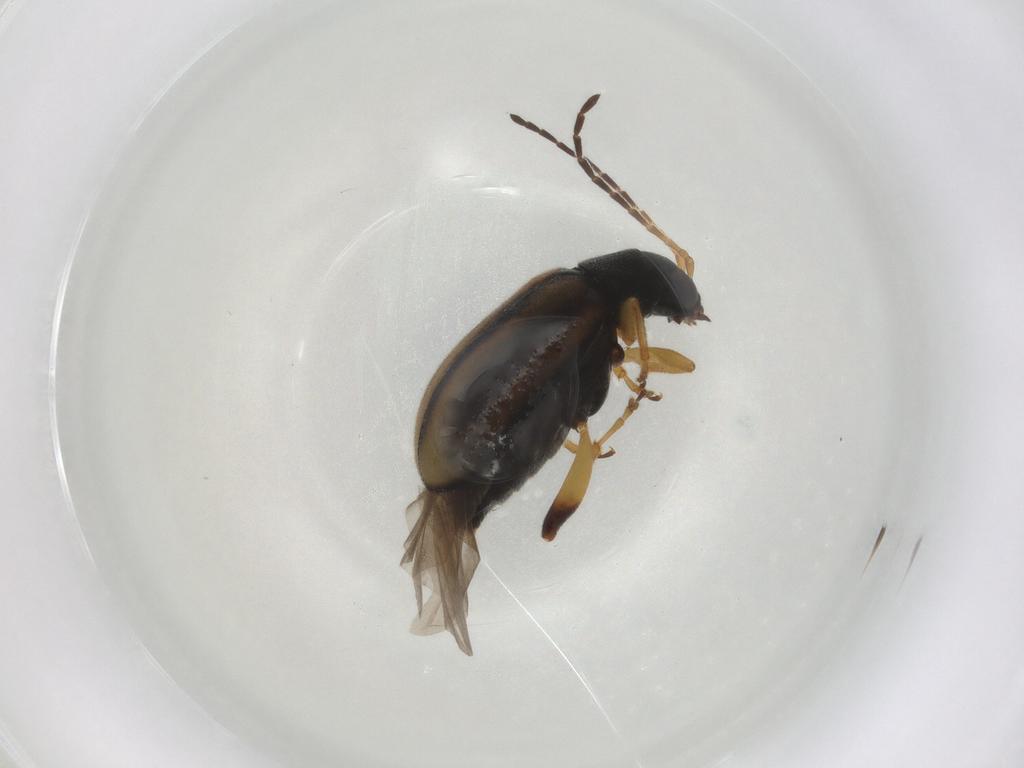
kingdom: Animalia
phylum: Arthropoda
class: Insecta
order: Coleoptera
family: Chrysomelidae
